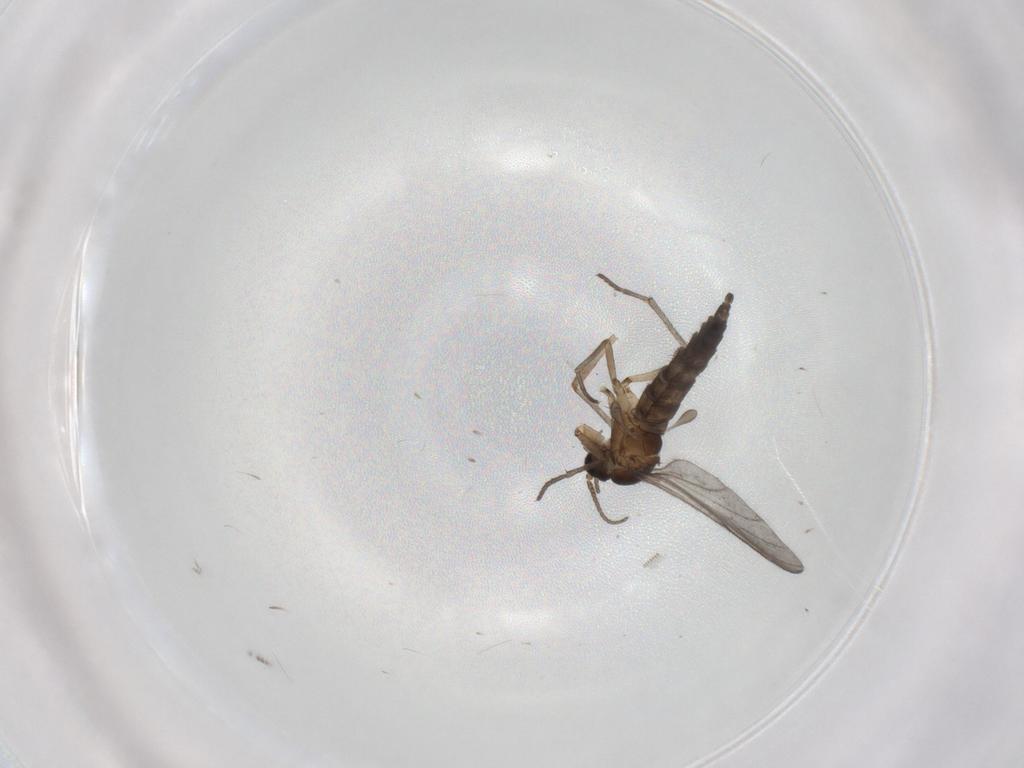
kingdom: Animalia
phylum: Arthropoda
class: Insecta
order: Diptera
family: Sciaridae
